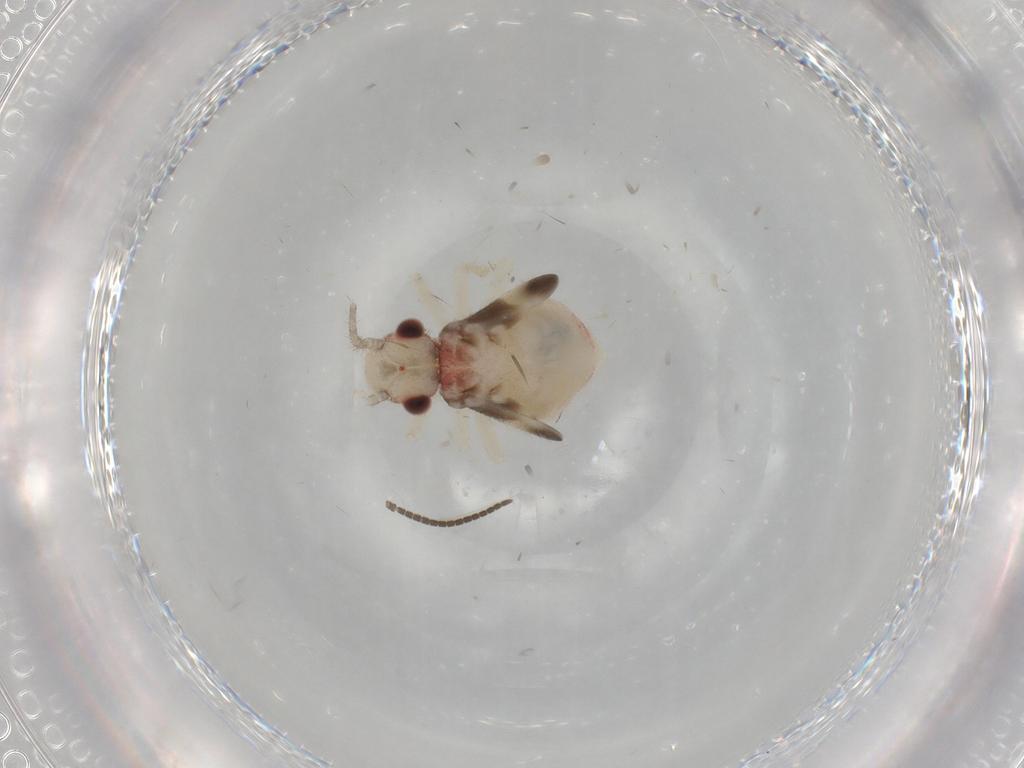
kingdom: Animalia
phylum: Arthropoda
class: Insecta
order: Psocodea
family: Amphipsocidae
